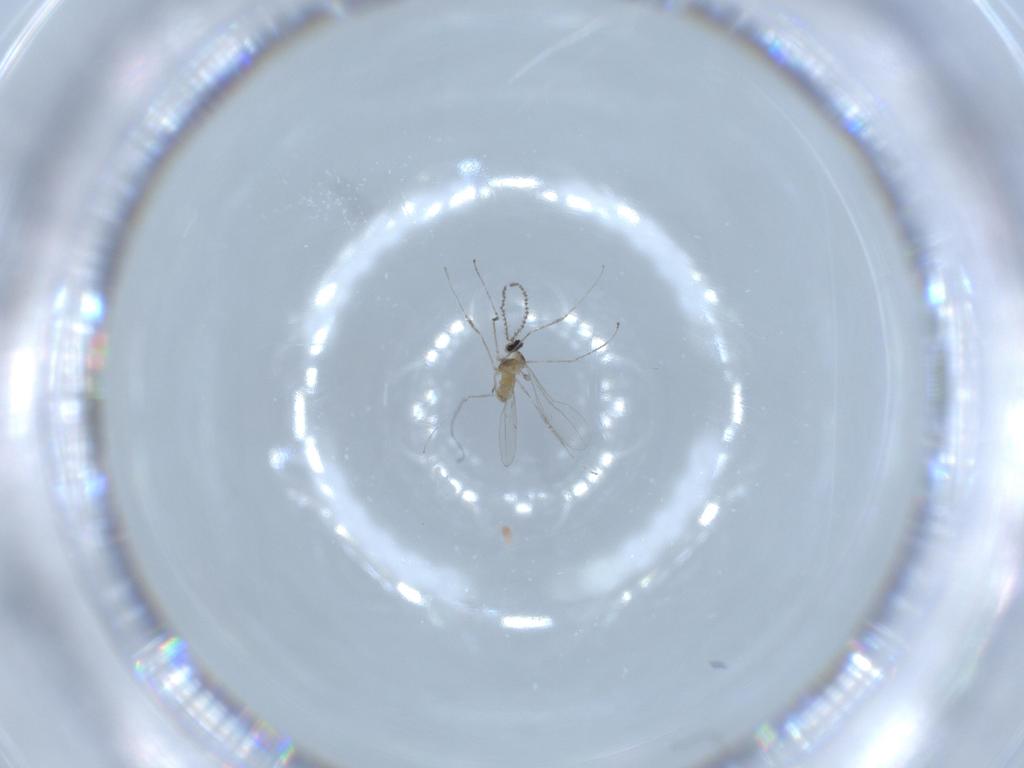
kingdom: Animalia
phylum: Arthropoda
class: Insecta
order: Diptera
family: Cecidomyiidae
